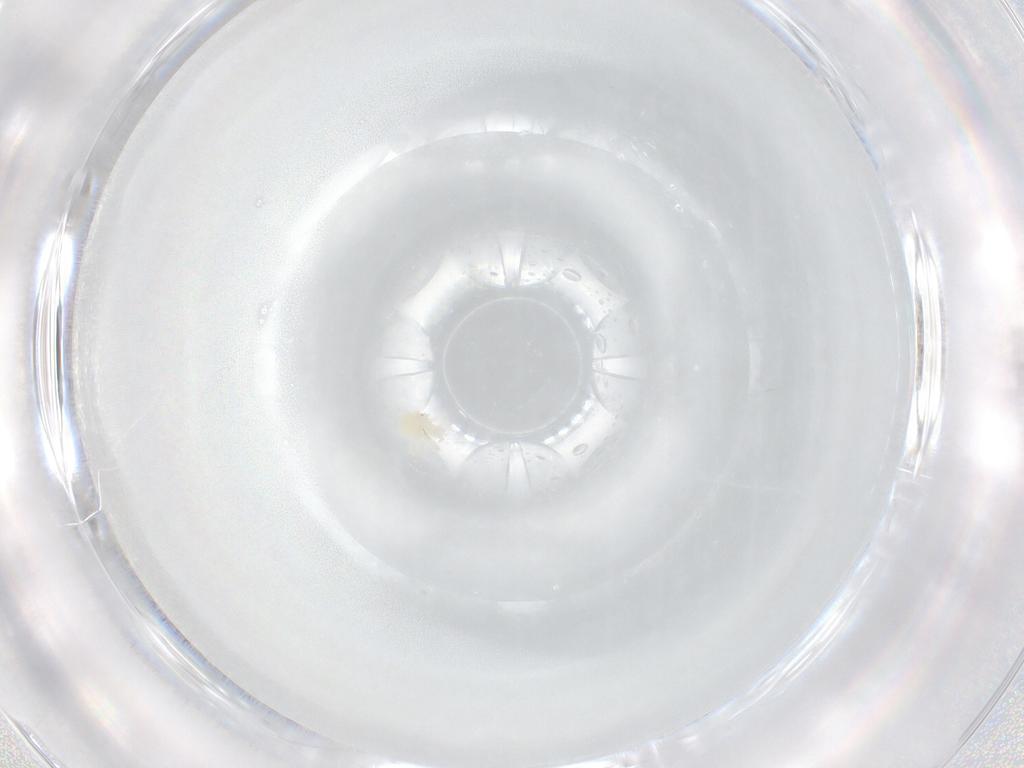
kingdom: Animalia
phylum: Arthropoda
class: Arachnida
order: Trombidiformes
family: Anystidae
